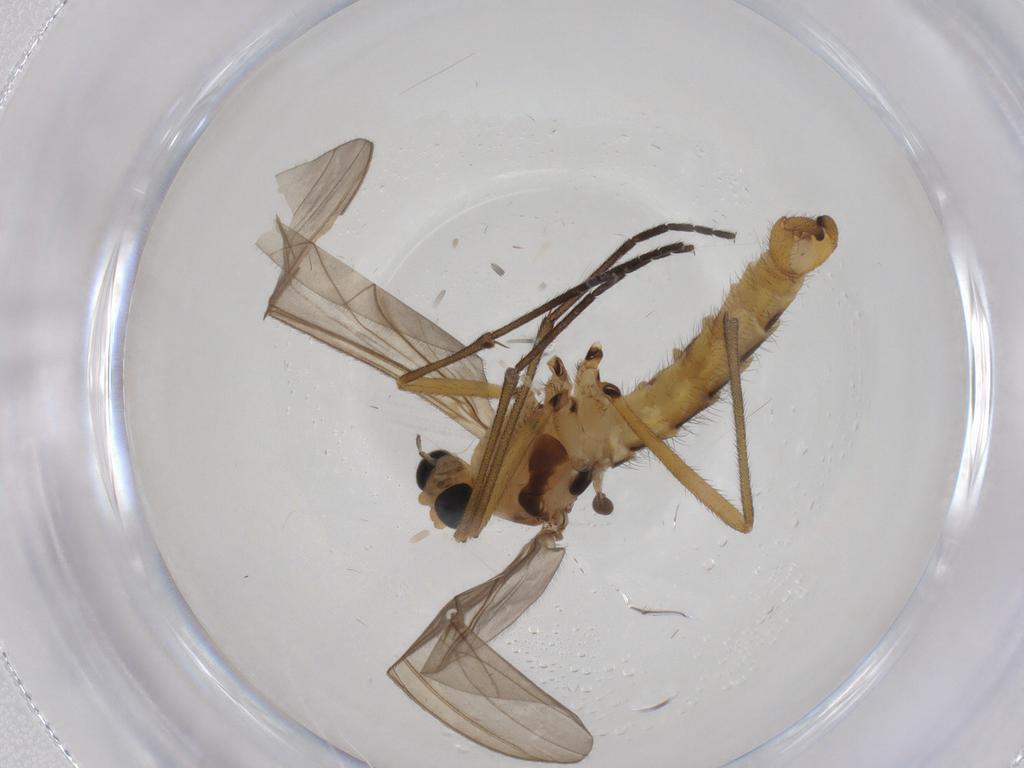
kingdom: Animalia
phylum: Arthropoda
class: Insecta
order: Diptera
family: Sciaridae
